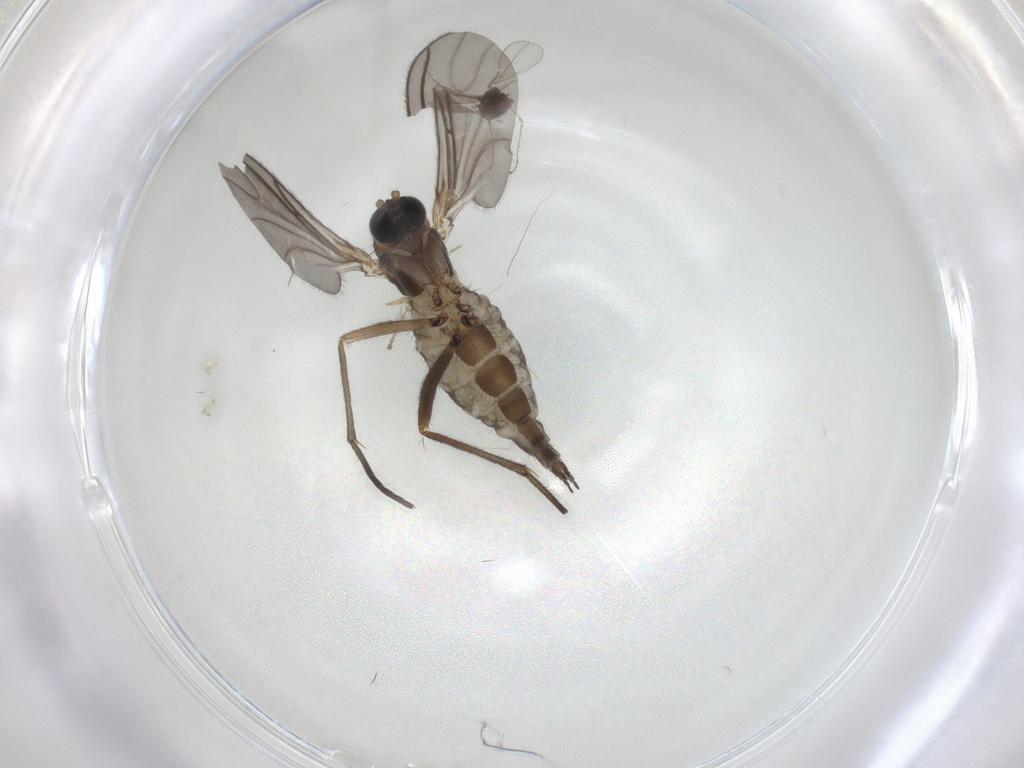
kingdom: Animalia
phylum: Arthropoda
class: Insecta
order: Diptera
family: Cecidomyiidae
